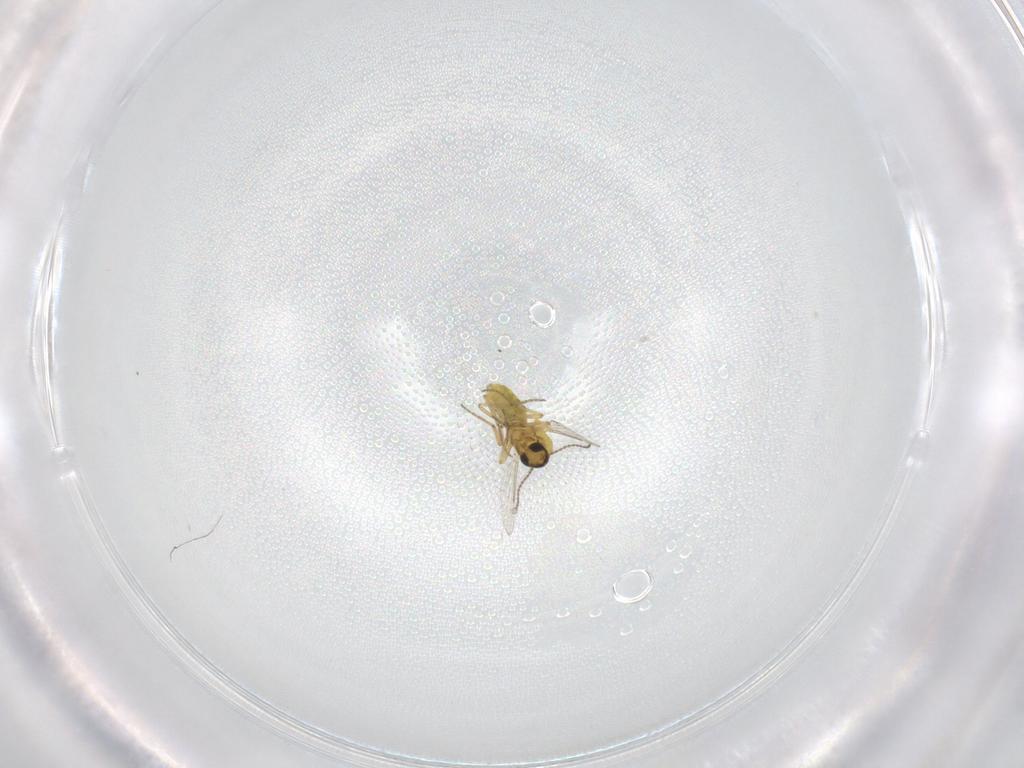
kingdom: Animalia
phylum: Arthropoda
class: Insecta
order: Diptera
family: Ceratopogonidae
